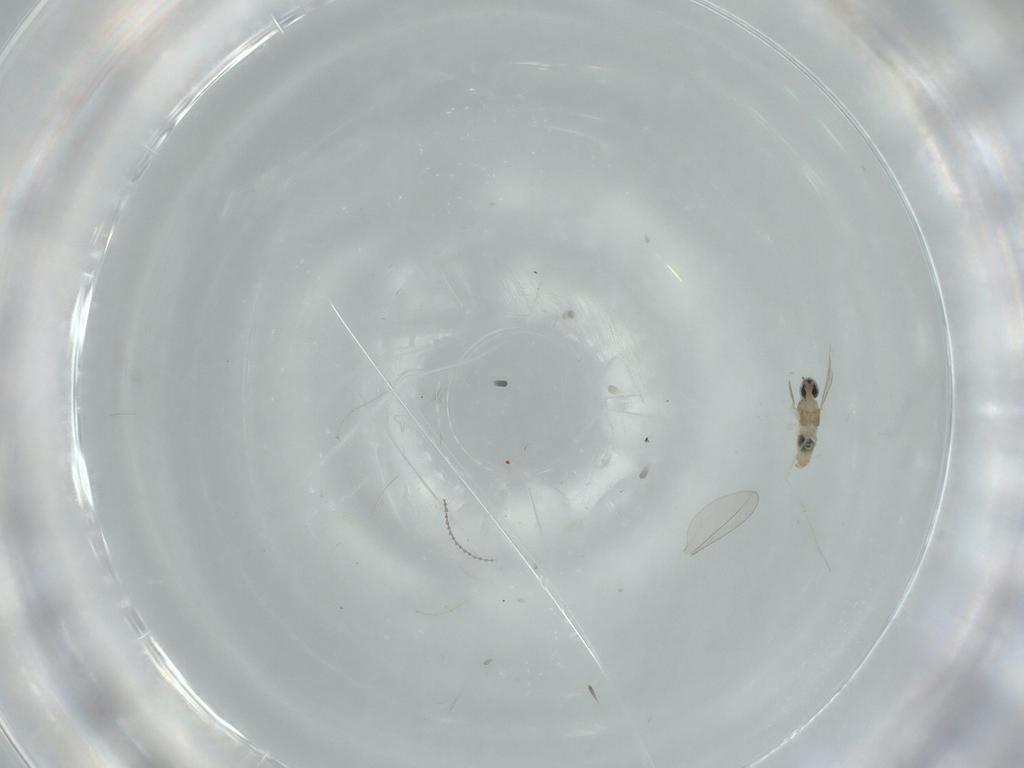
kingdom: Animalia
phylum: Arthropoda
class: Insecta
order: Diptera
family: Cecidomyiidae
